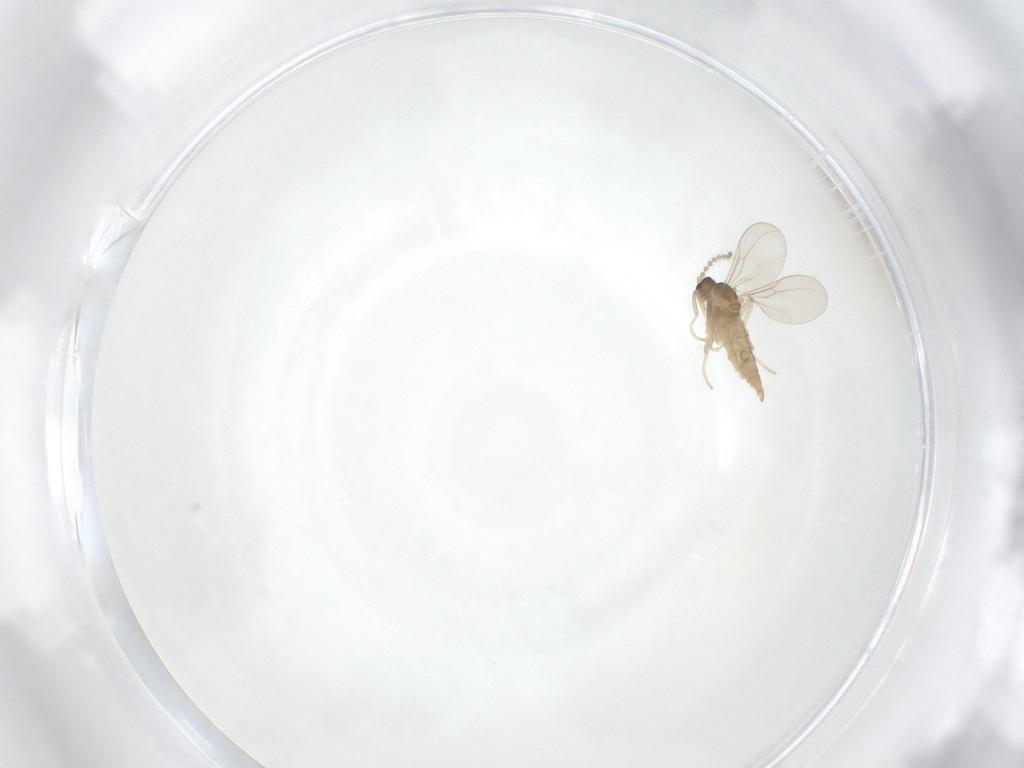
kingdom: Animalia
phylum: Arthropoda
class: Insecta
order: Diptera
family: Cecidomyiidae
